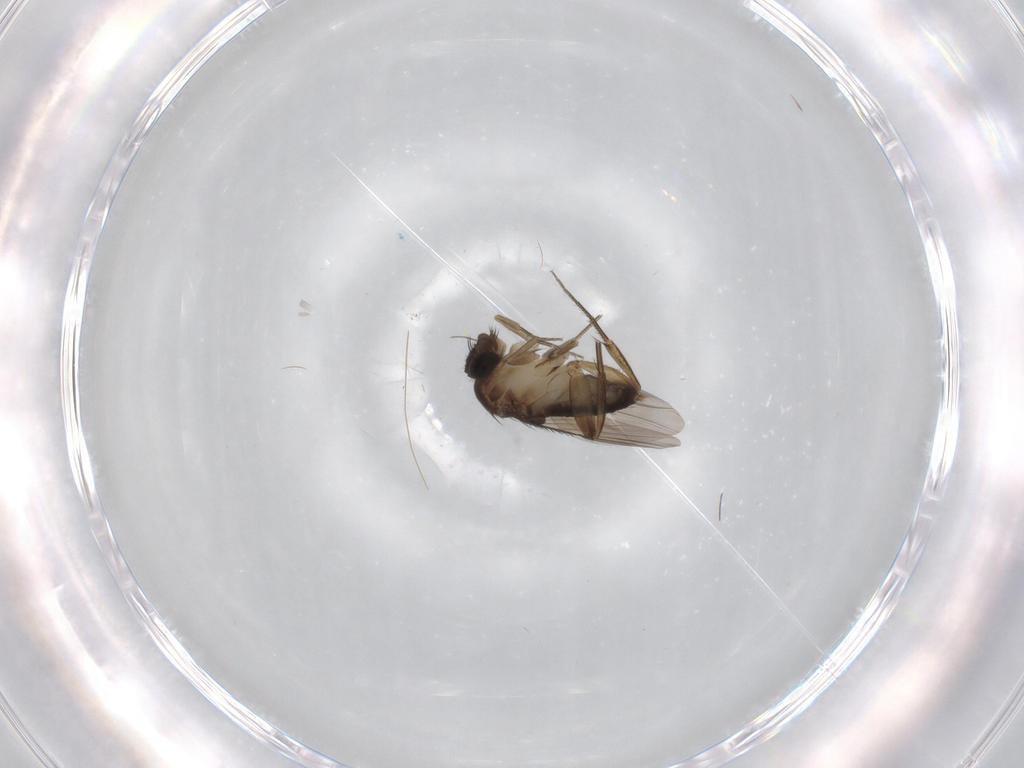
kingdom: Animalia
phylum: Arthropoda
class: Insecta
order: Diptera
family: Phoridae
